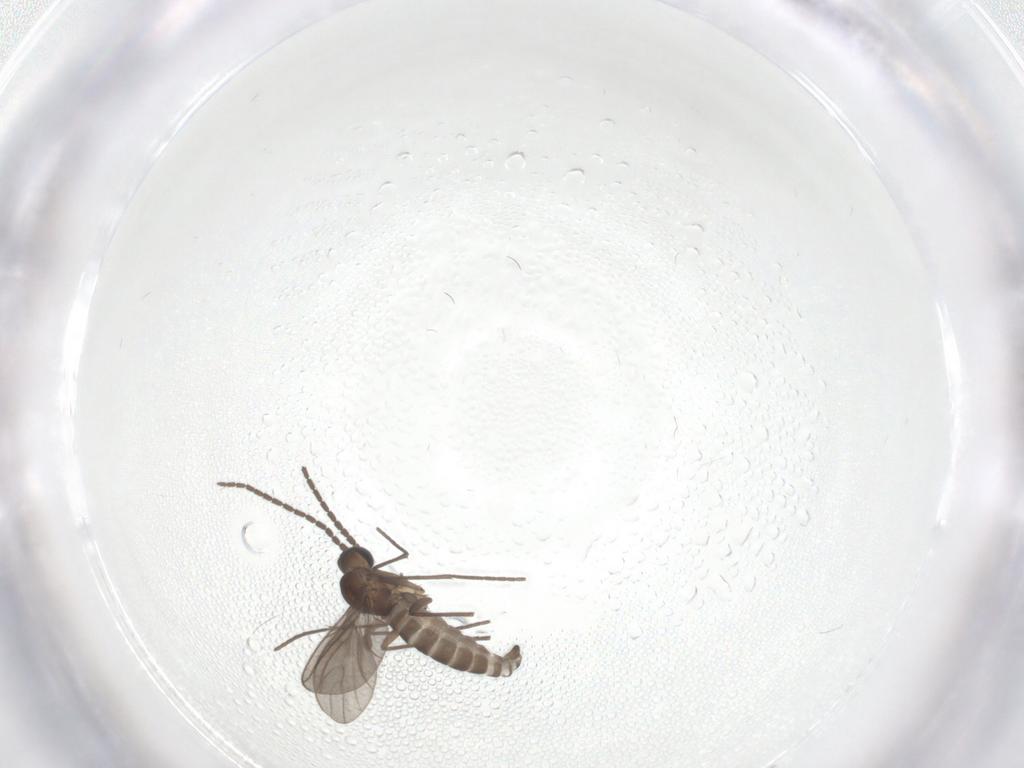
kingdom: Animalia
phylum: Arthropoda
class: Insecta
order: Diptera
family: Sciaridae
